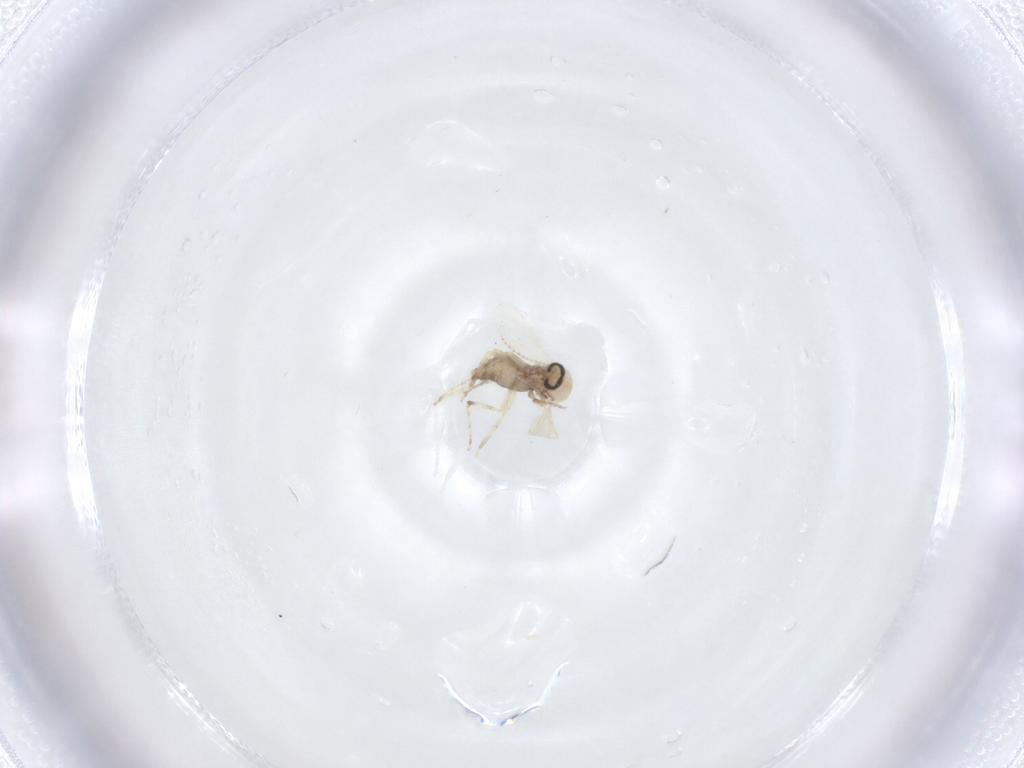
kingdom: Animalia
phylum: Arthropoda
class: Insecta
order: Diptera
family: Ceratopogonidae
